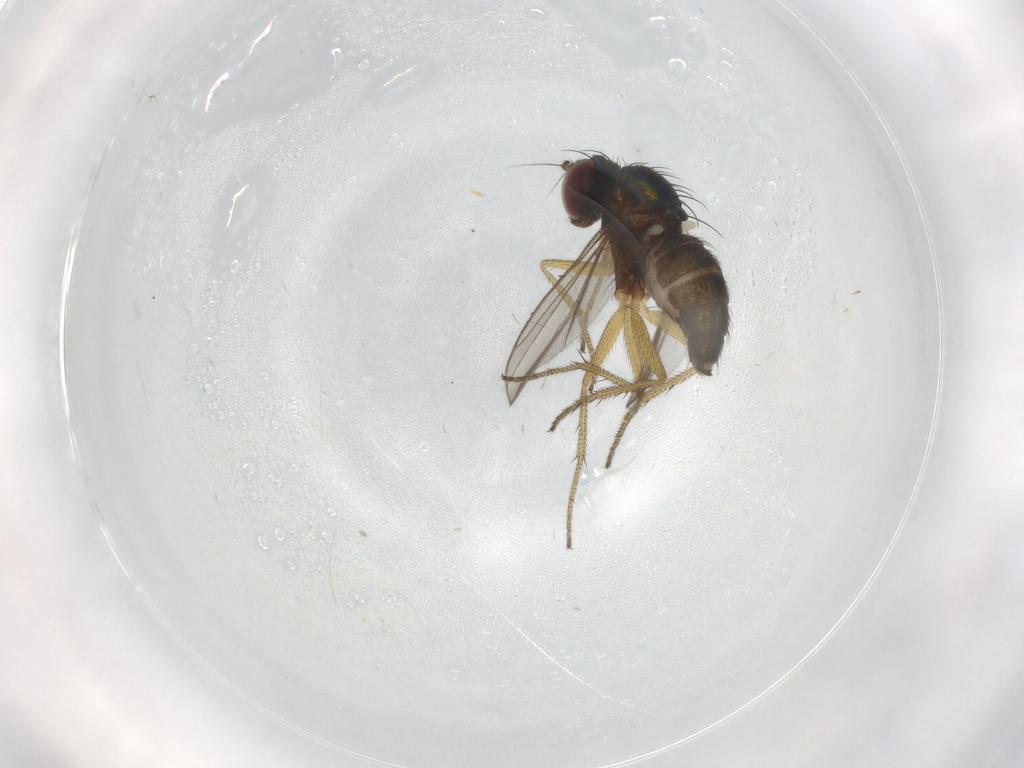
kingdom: Animalia
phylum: Arthropoda
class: Insecta
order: Diptera
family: Dolichopodidae
